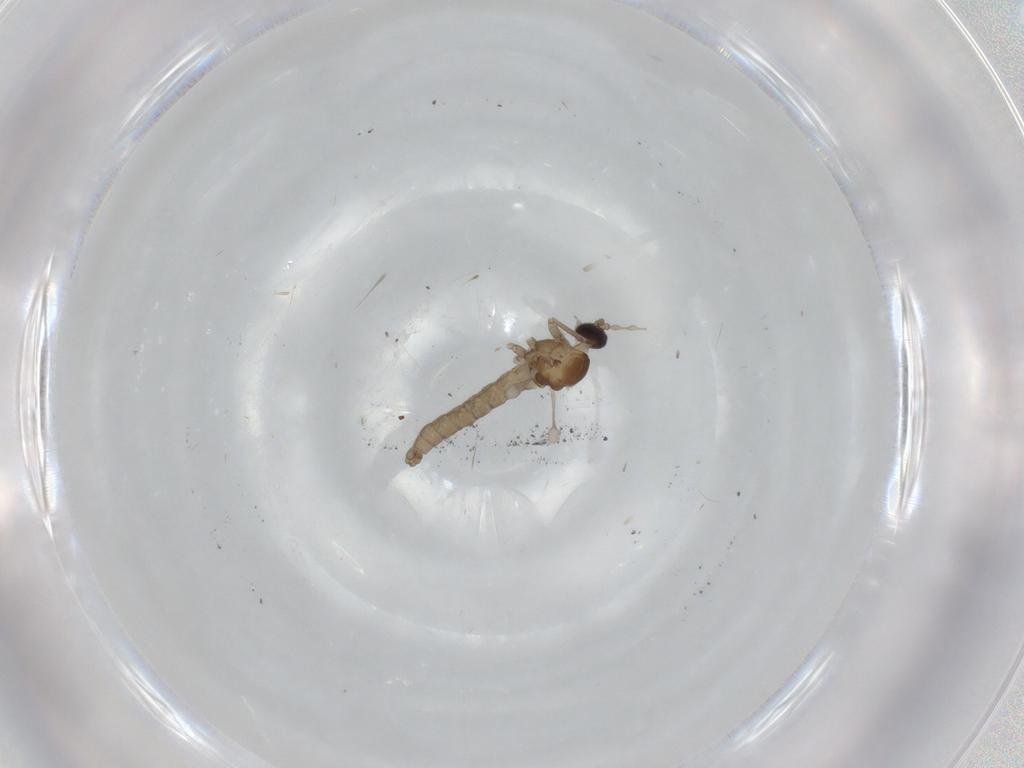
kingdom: Animalia
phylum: Arthropoda
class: Insecta
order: Diptera
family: Cecidomyiidae
